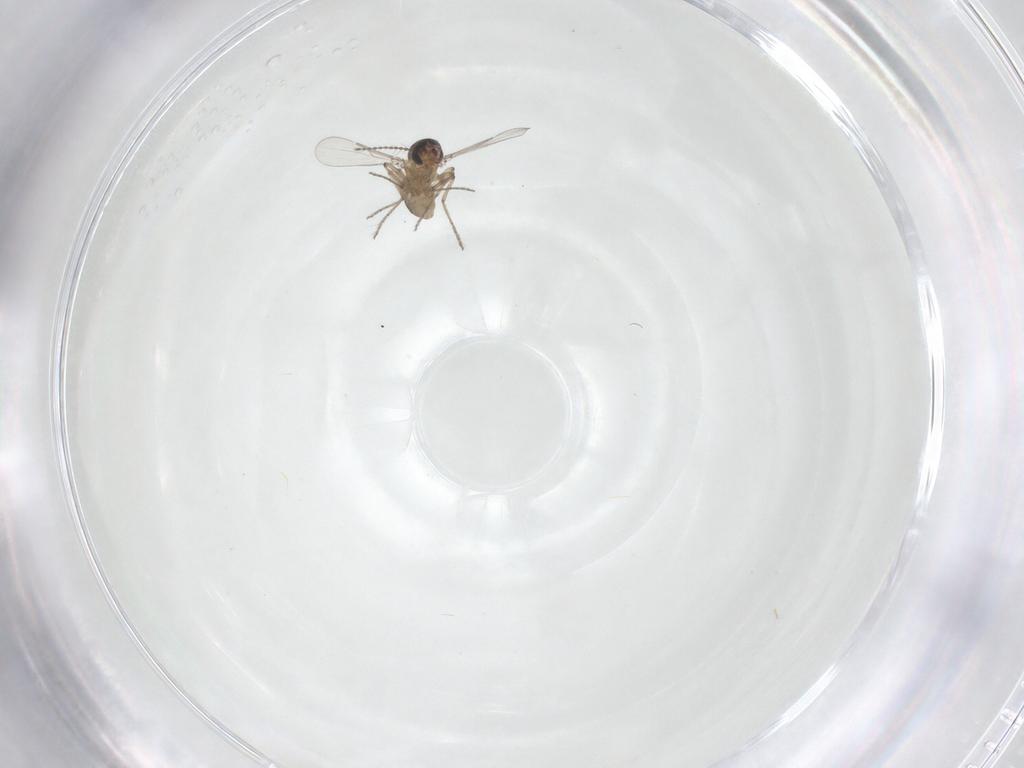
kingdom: Animalia
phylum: Arthropoda
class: Insecta
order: Diptera
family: Ceratopogonidae
